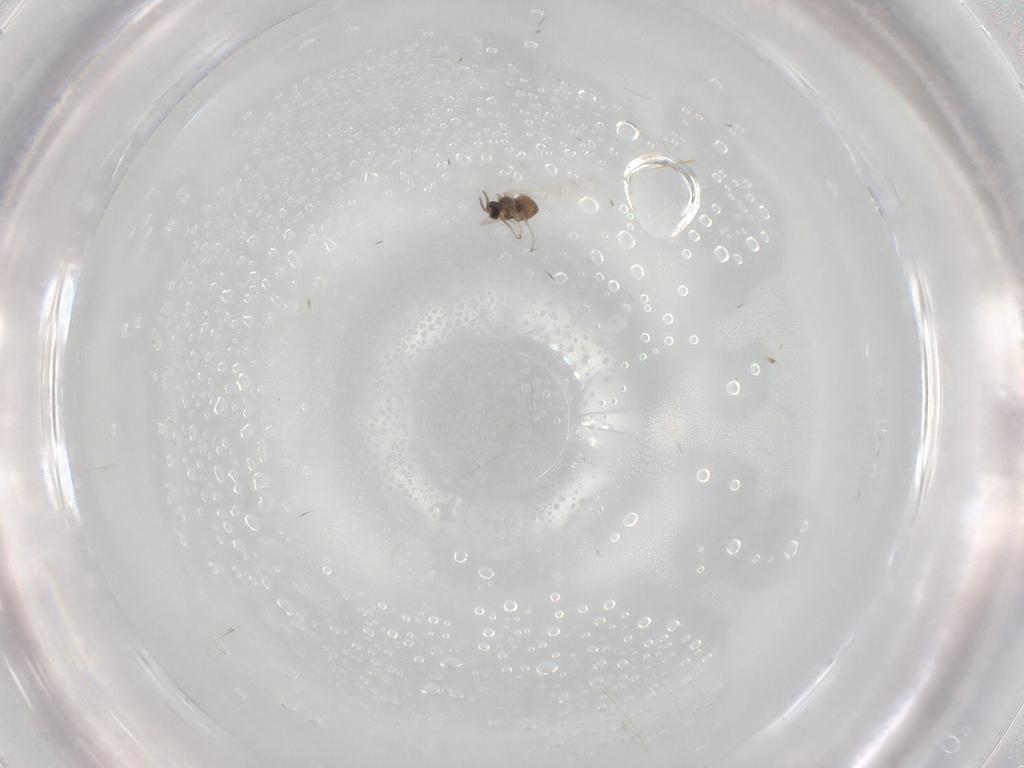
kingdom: Animalia
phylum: Arthropoda
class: Insecta
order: Diptera
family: Cecidomyiidae
